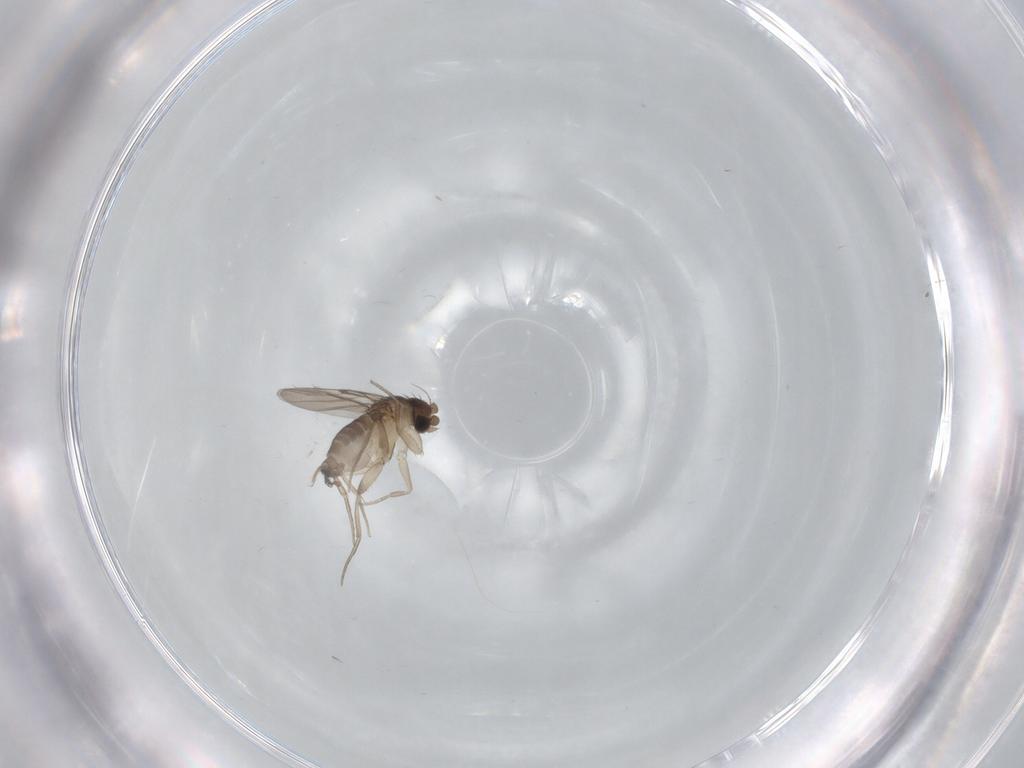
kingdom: Animalia
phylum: Arthropoda
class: Insecta
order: Diptera
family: Phoridae
